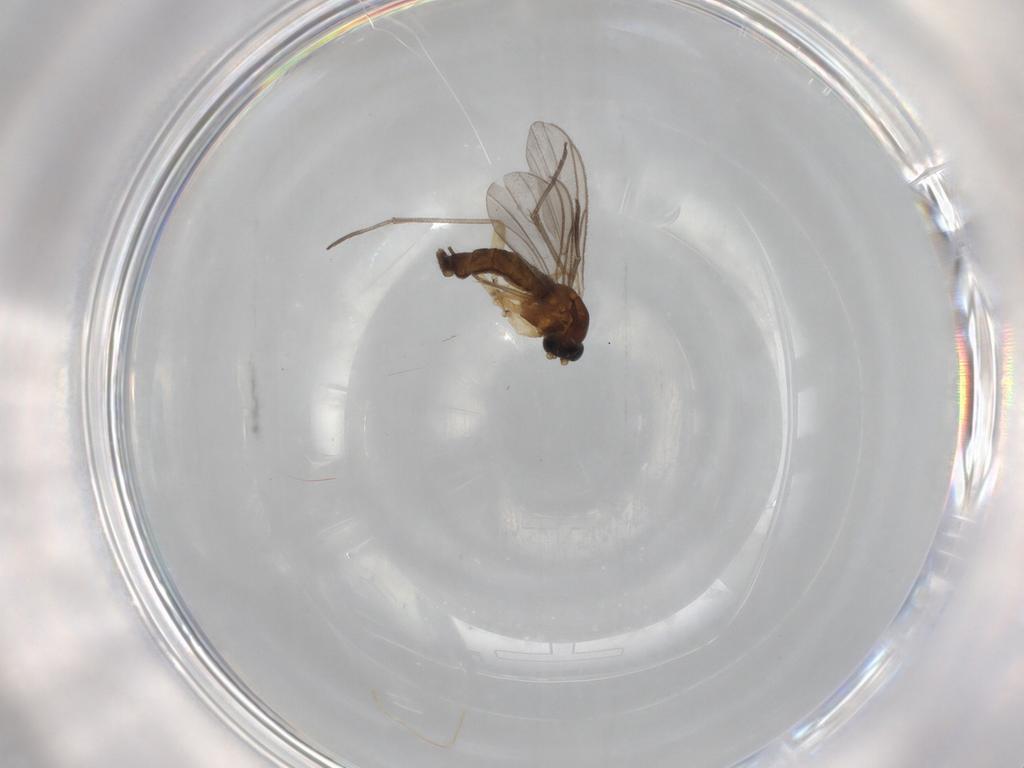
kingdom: Animalia
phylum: Arthropoda
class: Insecta
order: Diptera
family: Sciaridae
